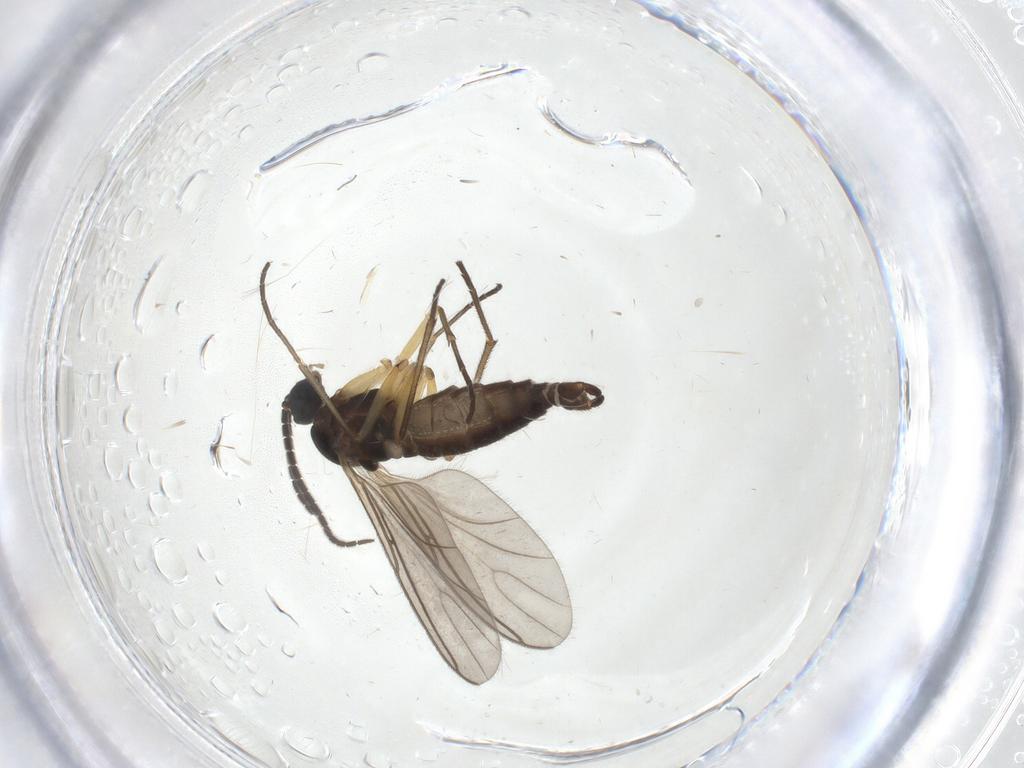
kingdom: Animalia
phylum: Arthropoda
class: Insecta
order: Diptera
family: Sciaridae
